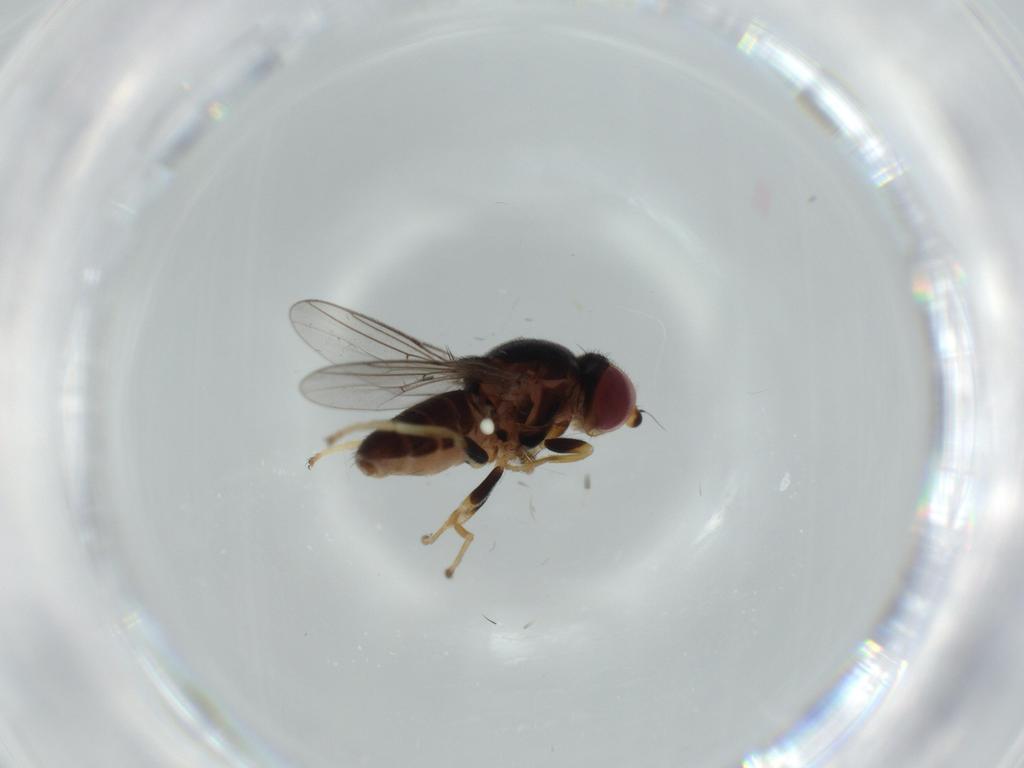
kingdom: Animalia
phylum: Arthropoda
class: Insecta
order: Diptera
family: Chloropidae
